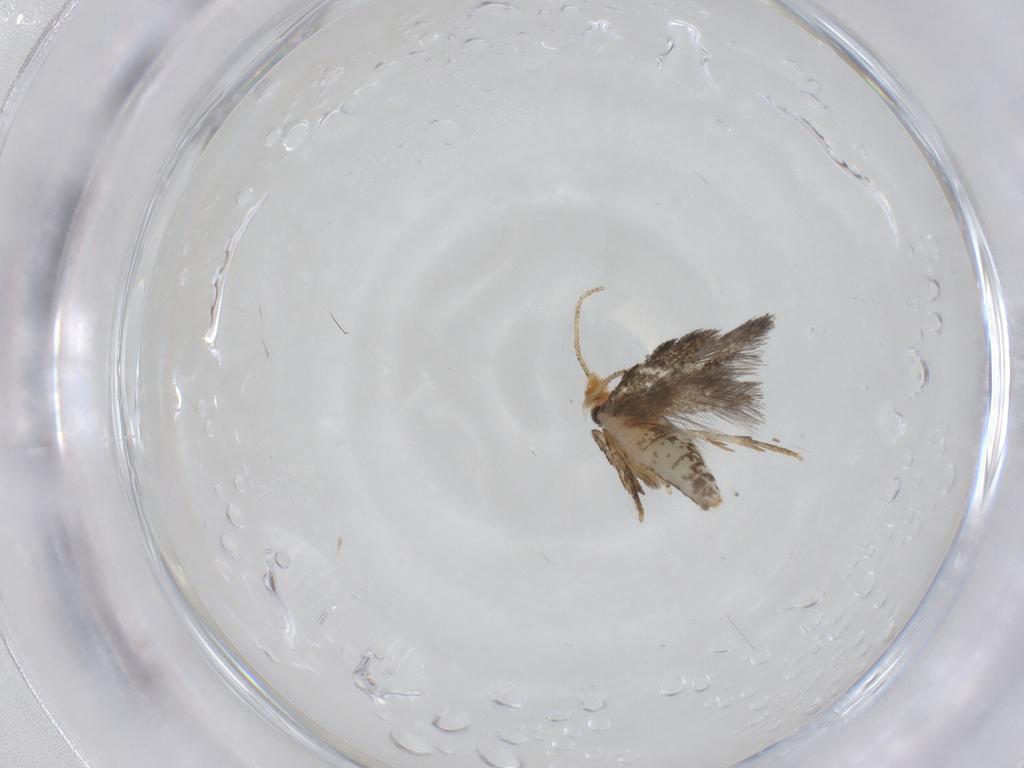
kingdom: Animalia
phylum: Arthropoda
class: Insecta
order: Lepidoptera
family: Nepticulidae
